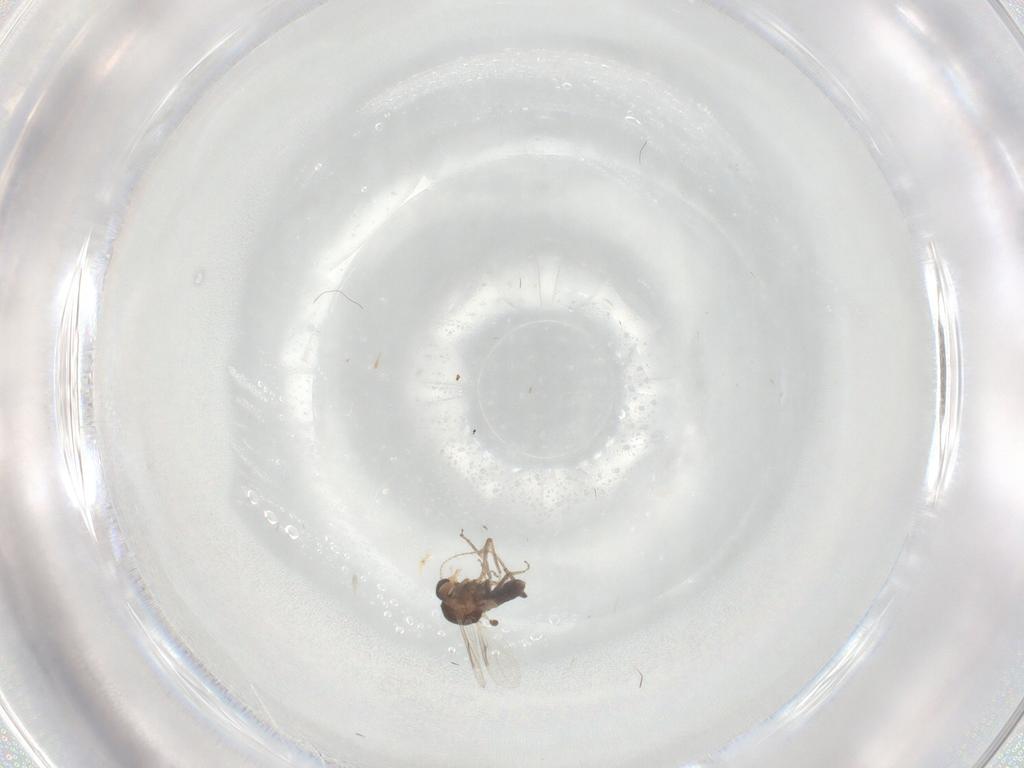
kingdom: Animalia
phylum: Arthropoda
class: Insecta
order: Diptera
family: Ceratopogonidae
